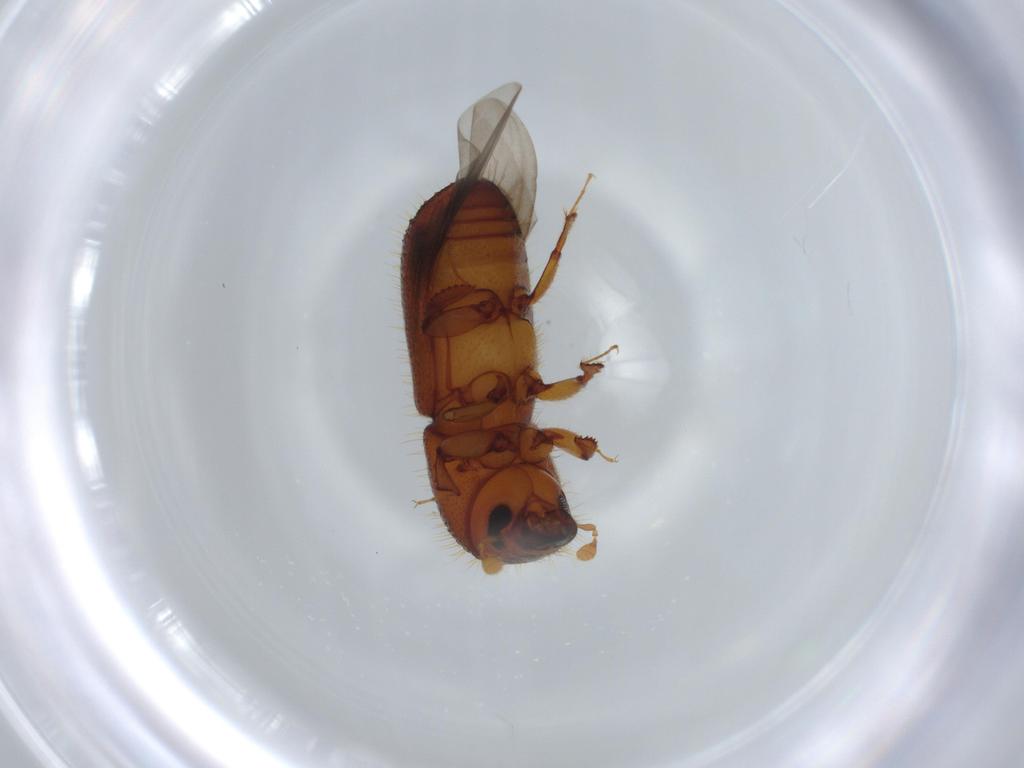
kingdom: Animalia
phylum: Arthropoda
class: Insecta
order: Coleoptera
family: Curculionidae
